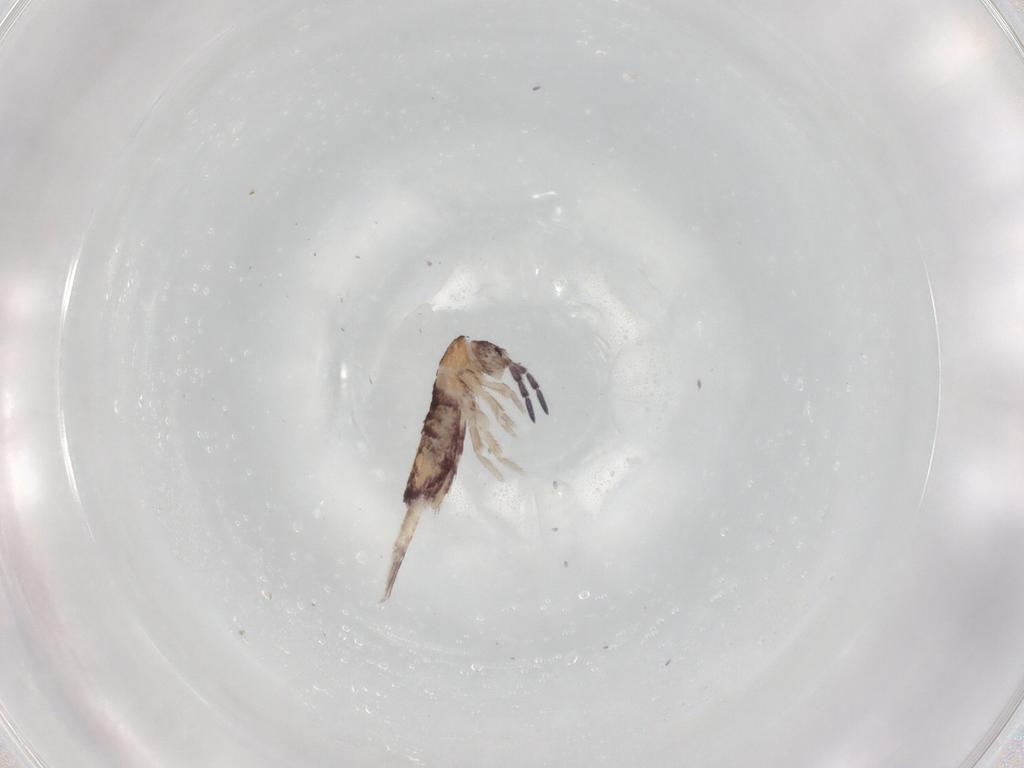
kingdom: Animalia
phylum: Arthropoda
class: Collembola
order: Entomobryomorpha
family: Entomobryidae
